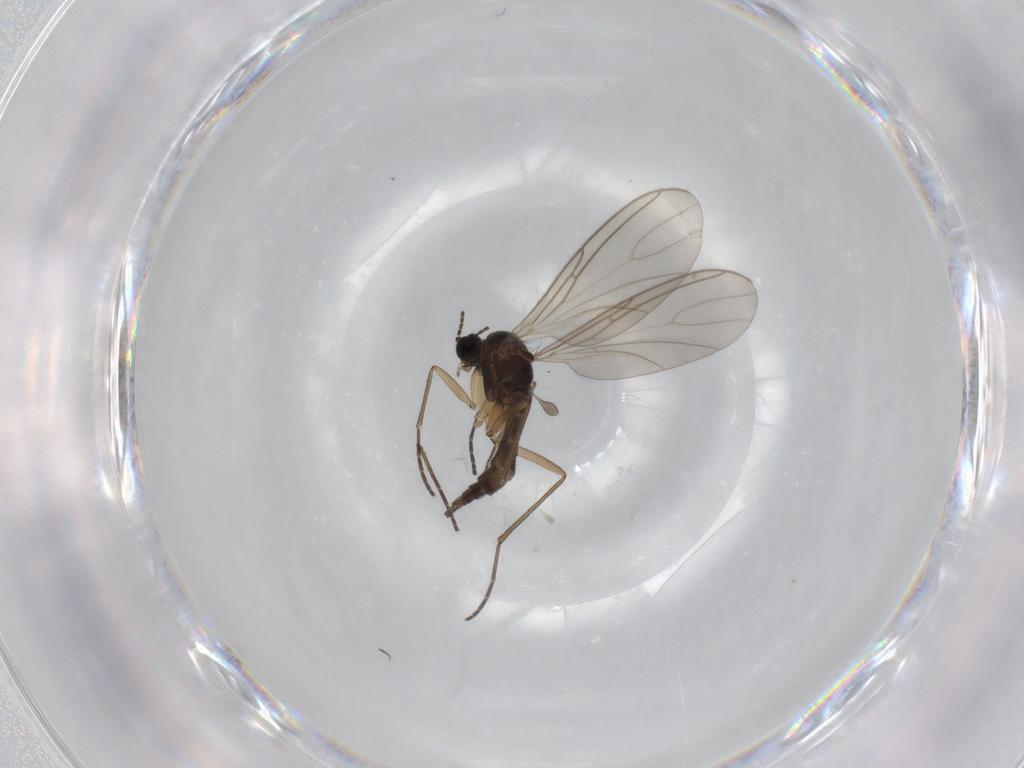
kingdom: Animalia
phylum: Arthropoda
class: Insecta
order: Diptera
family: Sciaridae
